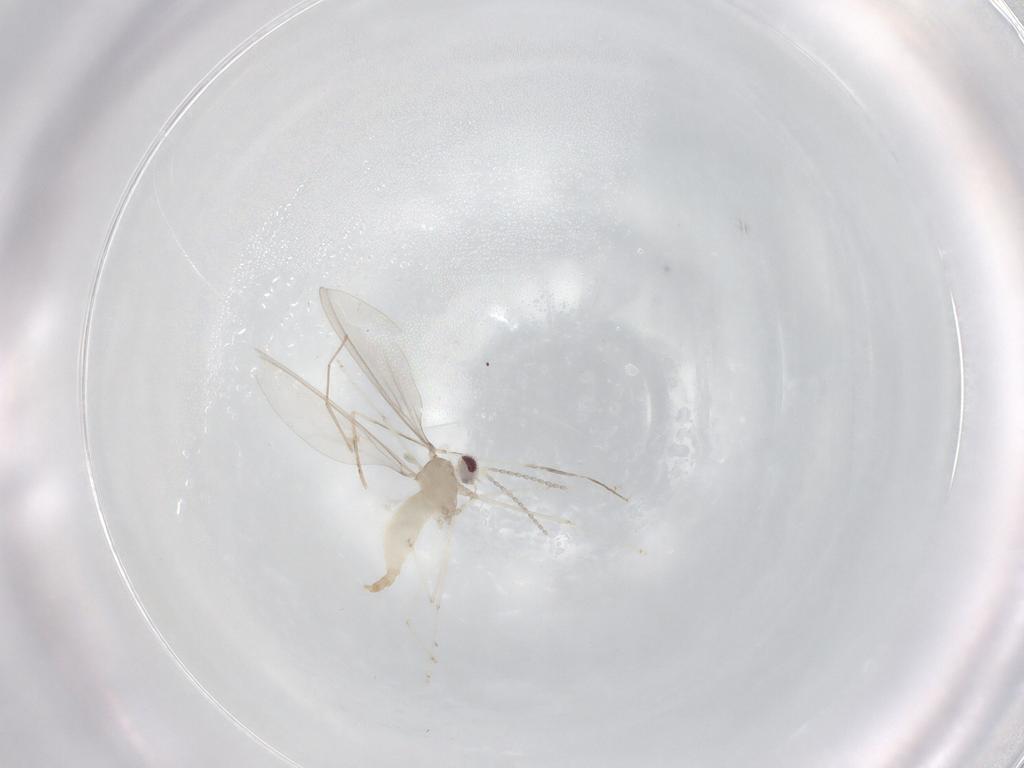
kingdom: Animalia
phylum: Arthropoda
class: Insecta
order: Diptera
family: Cecidomyiidae
